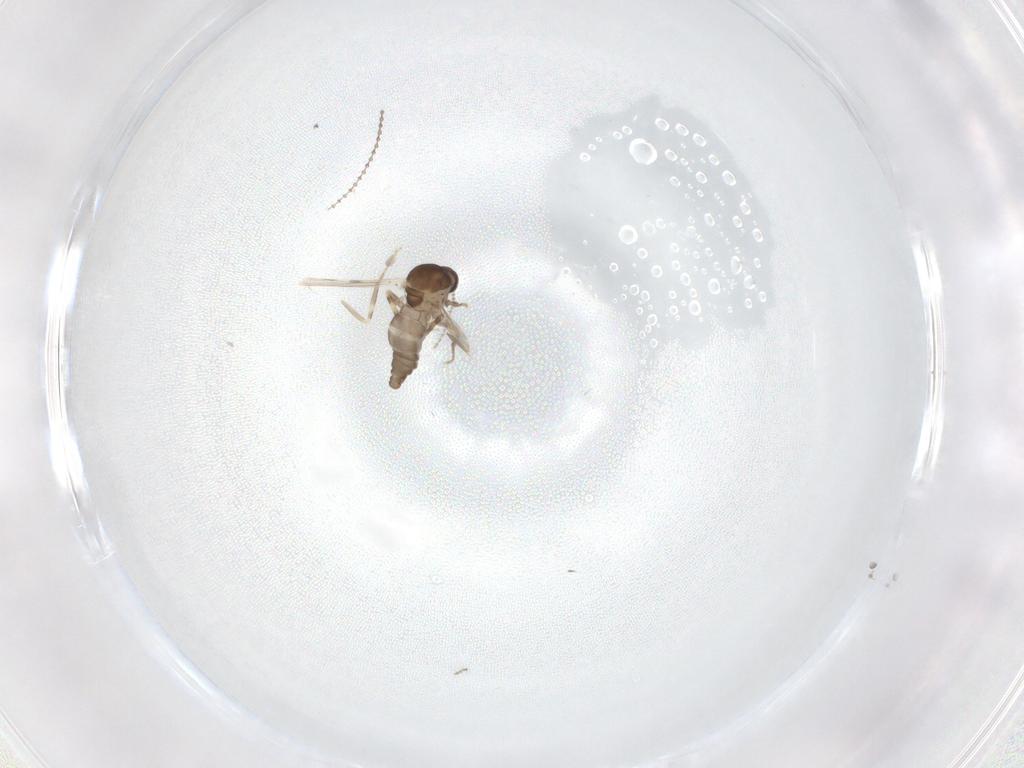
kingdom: Animalia
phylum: Arthropoda
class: Insecta
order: Diptera
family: Ceratopogonidae
